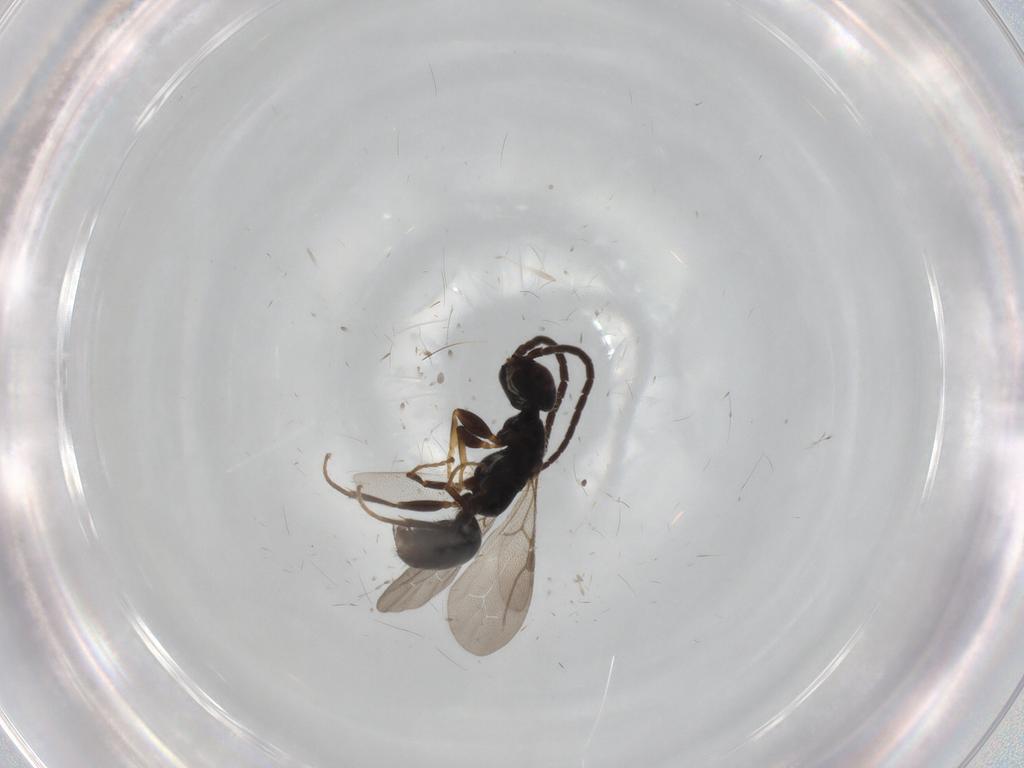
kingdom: Animalia
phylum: Arthropoda
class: Insecta
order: Hymenoptera
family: Bethylidae
